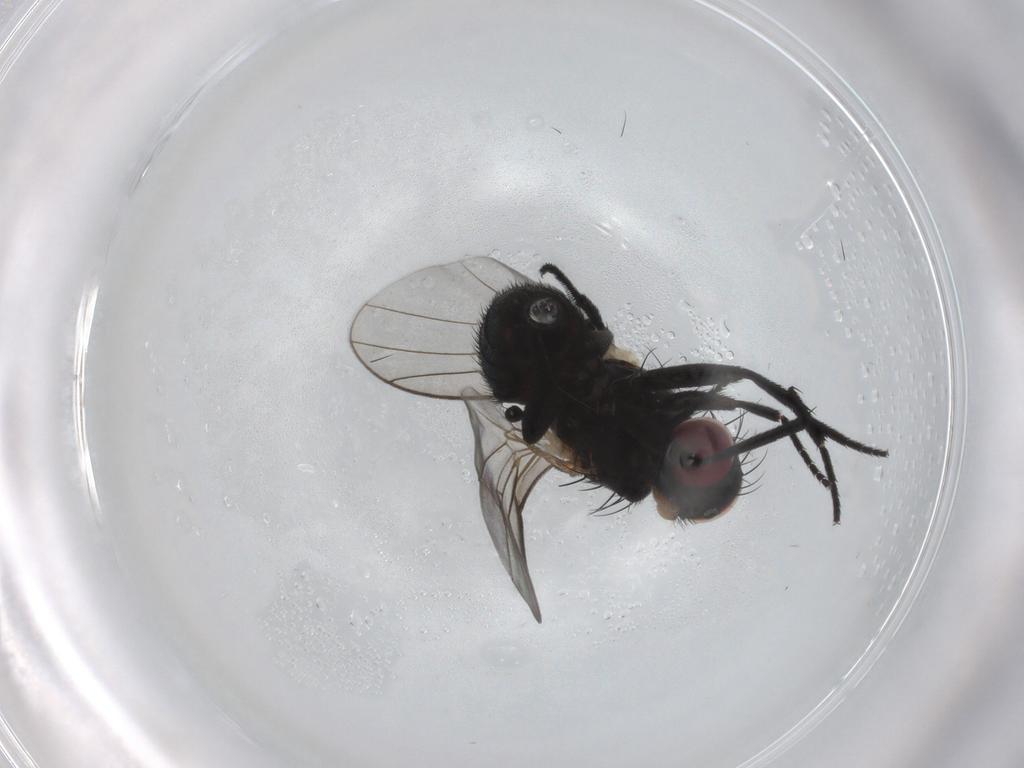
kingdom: Animalia
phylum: Arthropoda
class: Insecta
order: Diptera
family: Agromyzidae
